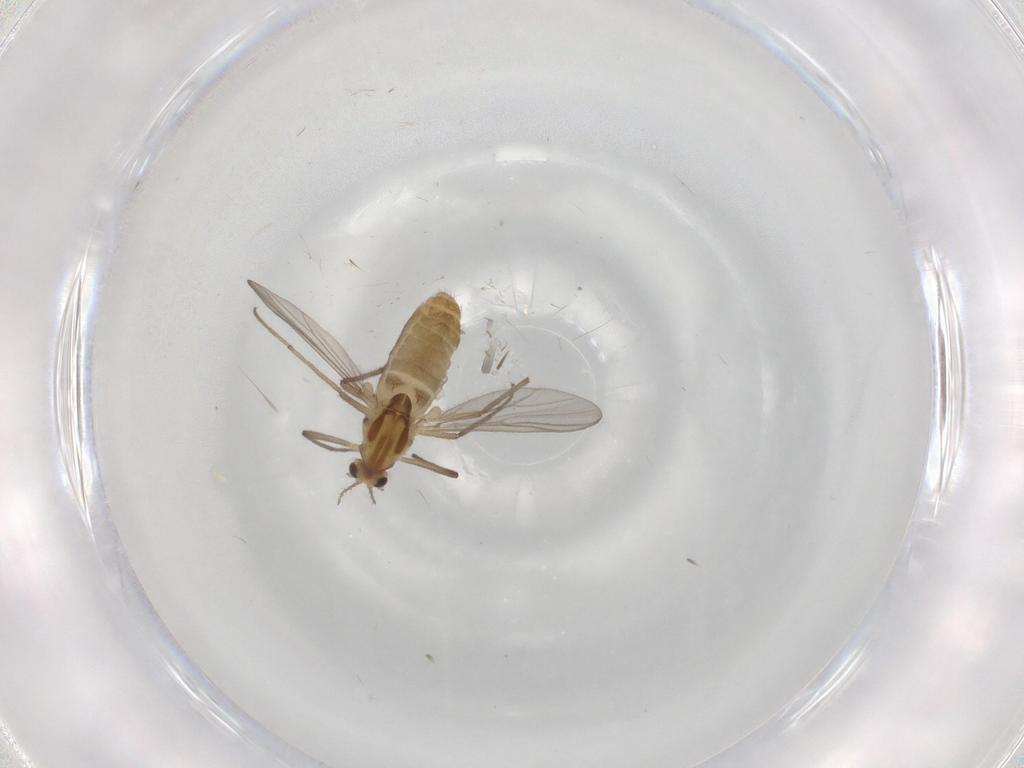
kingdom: Animalia
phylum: Arthropoda
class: Insecta
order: Diptera
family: Chironomidae
